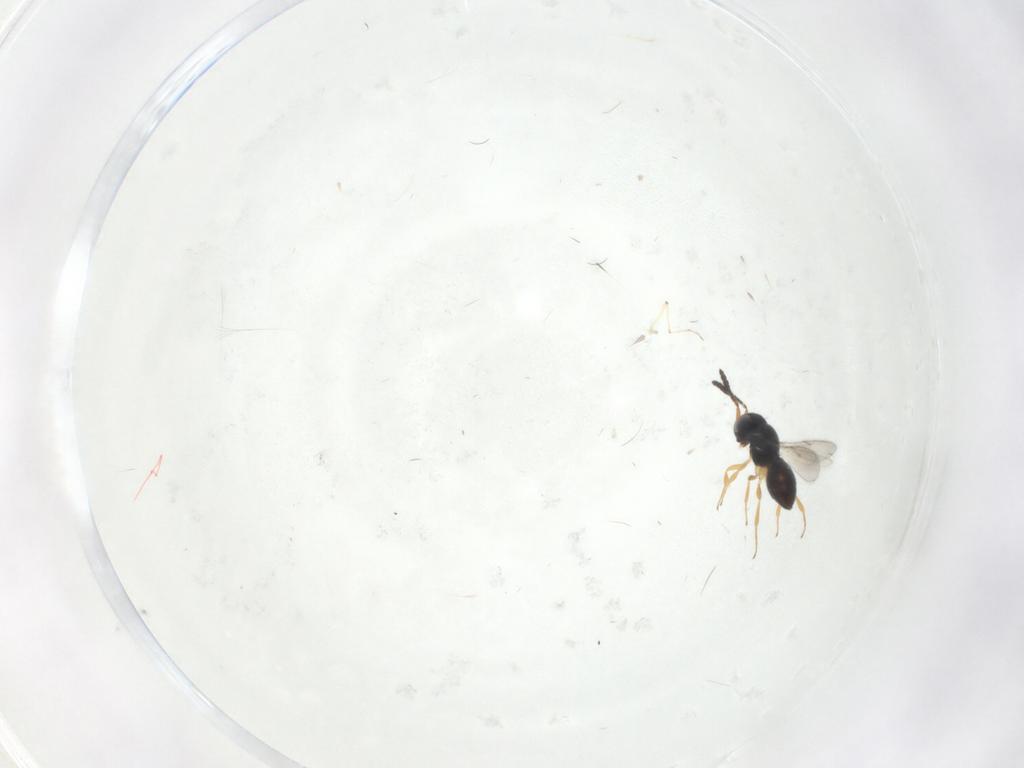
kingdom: Animalia
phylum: Arthropoda
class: Insecta
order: Hymenoptera
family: Scelionidae
